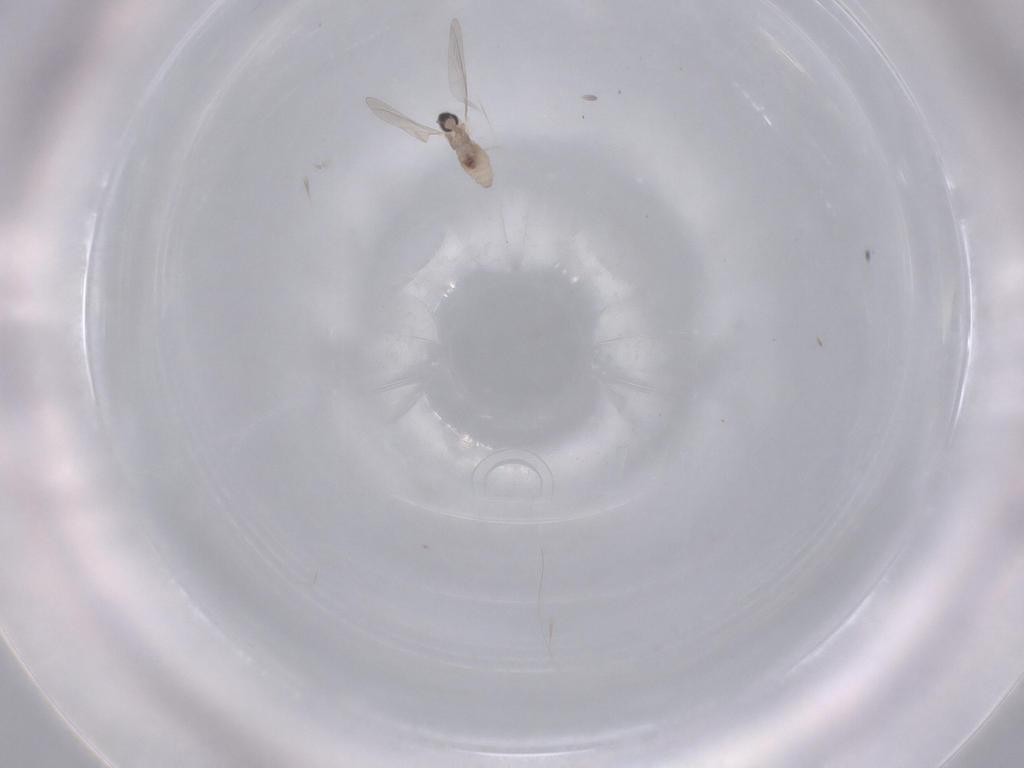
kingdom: Animalia
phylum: Arthropoda
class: Insecta
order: Diptera
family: Cecidomyiidae
